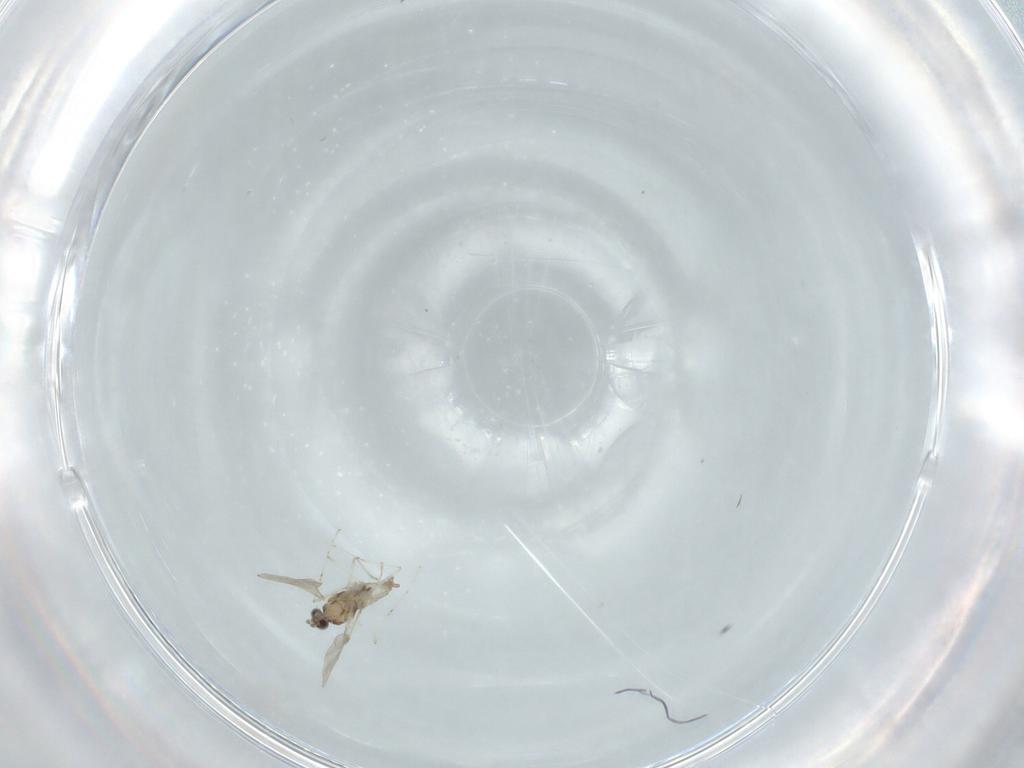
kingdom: Animalia
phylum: Arthropoda
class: Insecta
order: Diptera
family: Cecidomyiidae
